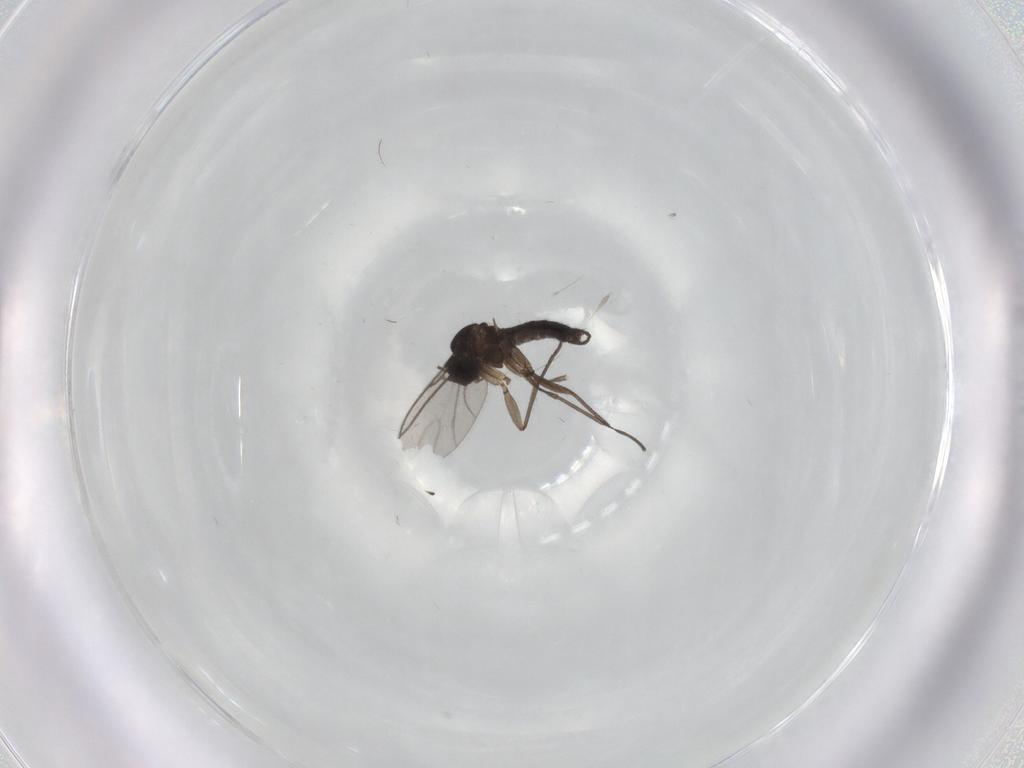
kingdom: Animalia
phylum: Arthropoda
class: Insecta
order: Diptera
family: Sciaridae
